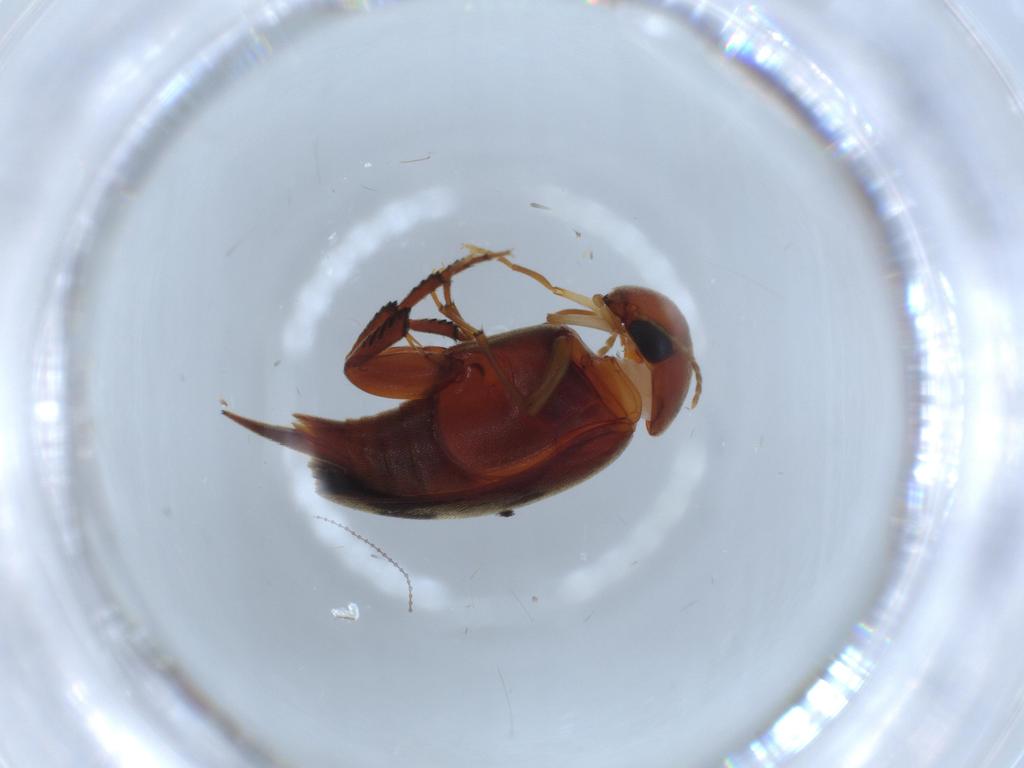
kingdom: Animalia
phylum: Arthropoda
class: Insecta
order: Coleoptera
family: Mordellidae
